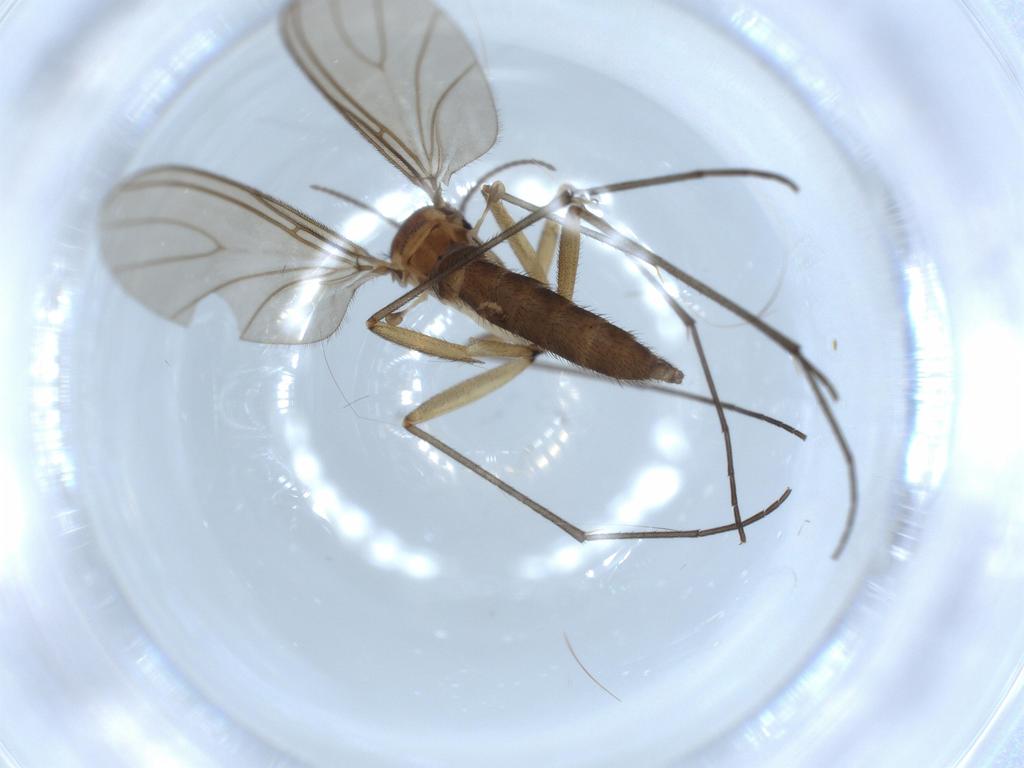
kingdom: Animalia
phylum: Arthropoda
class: Insecta
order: Diptera
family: Sciaridae
